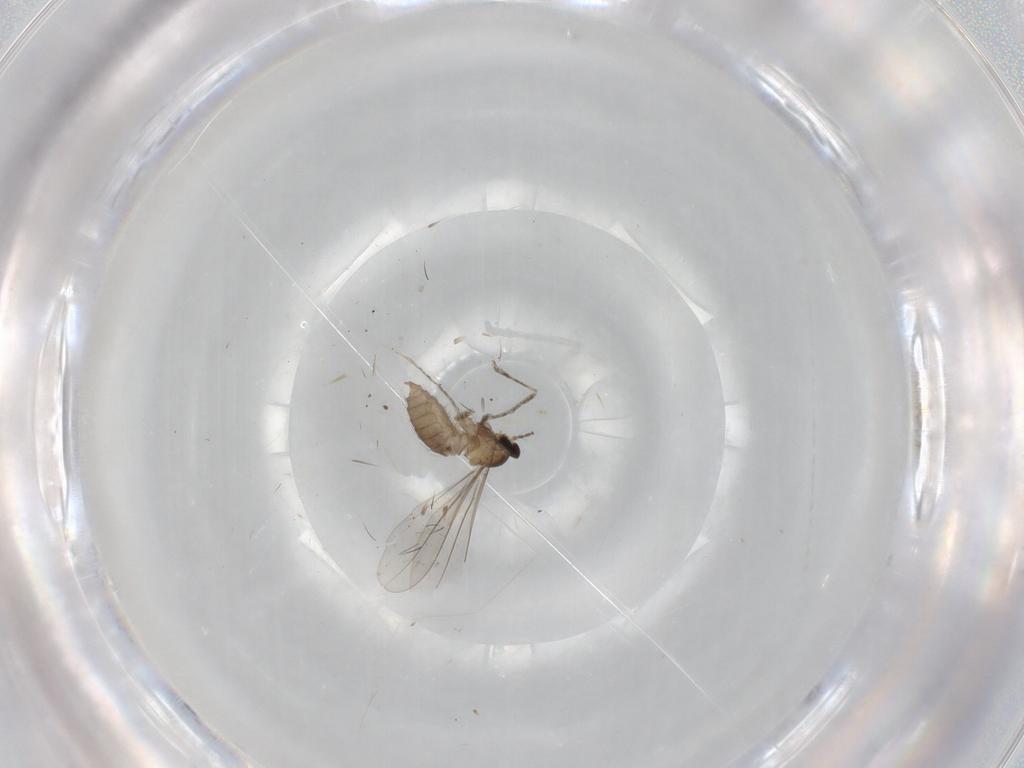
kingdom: Animalia
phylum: Arthropoda
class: Insecta
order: Diptera
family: Cecidomyiidae
